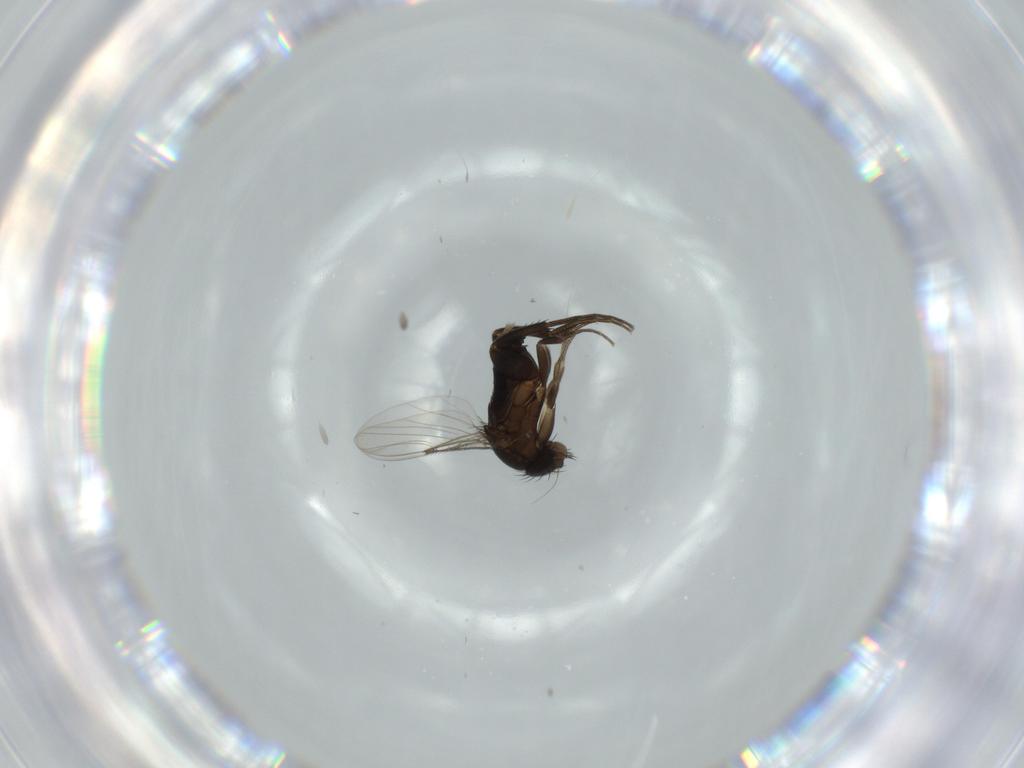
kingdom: Animalia
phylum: Arthropoda
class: Insecta
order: Diptera
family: Phoridae
